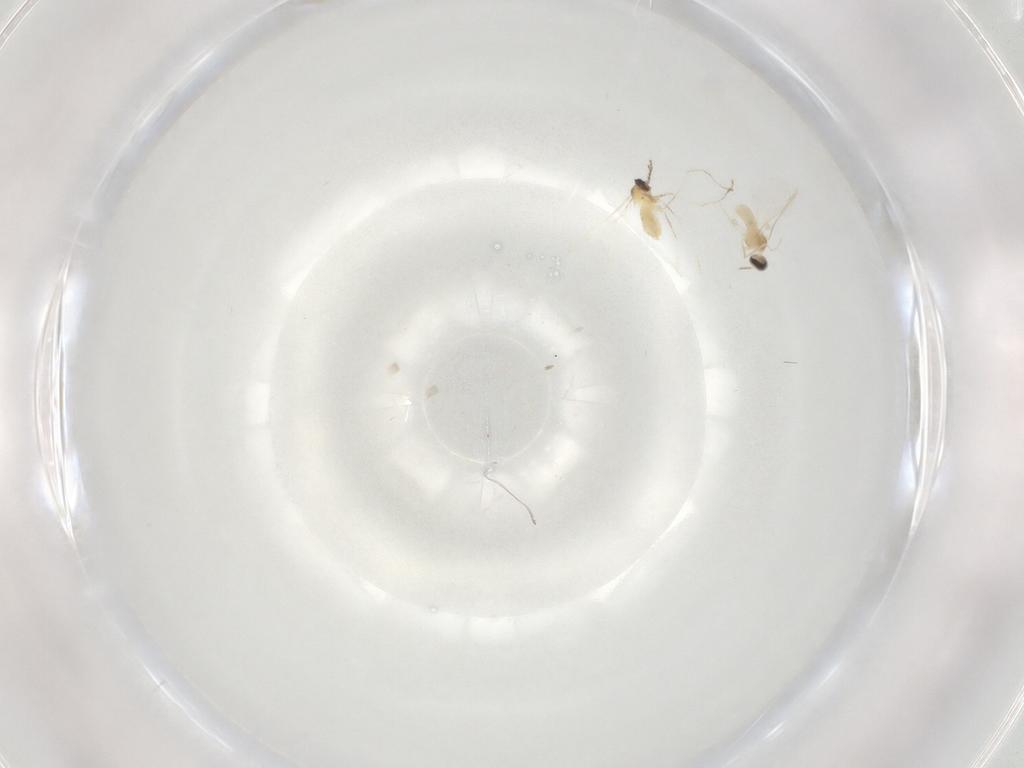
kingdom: Animalia
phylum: Arthropoda
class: Insecta
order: Diptera
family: Cecidomyiidae
